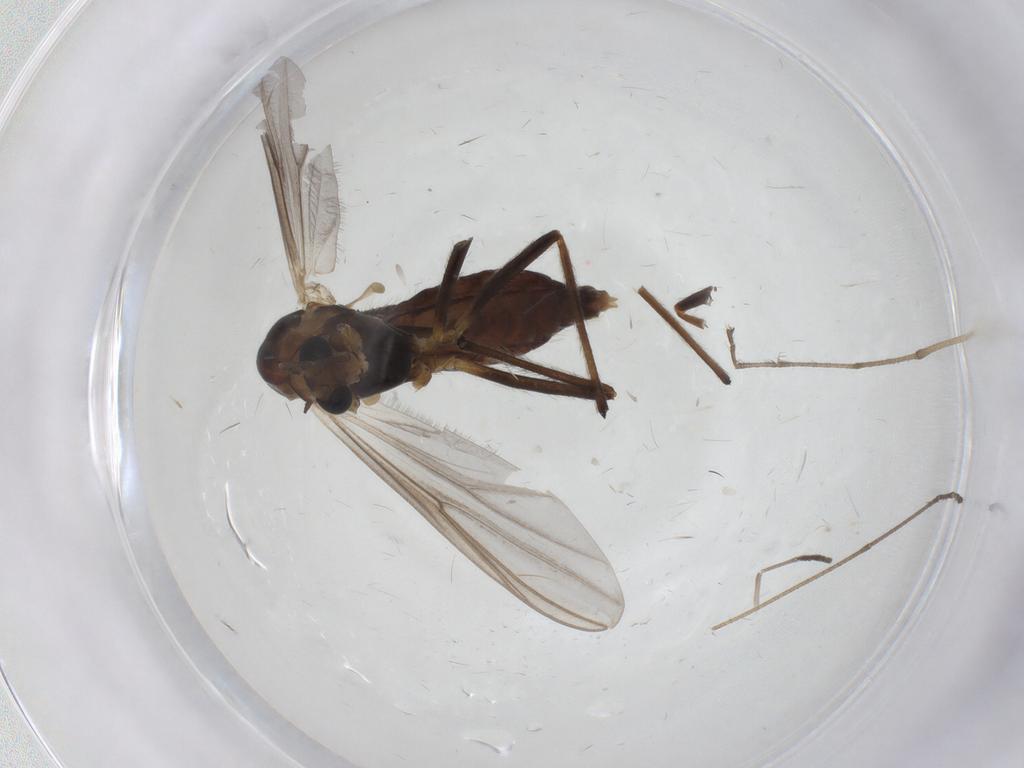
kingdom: Animalia
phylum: Arthropoda
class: Insecta
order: Diptera
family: Chironomidae
